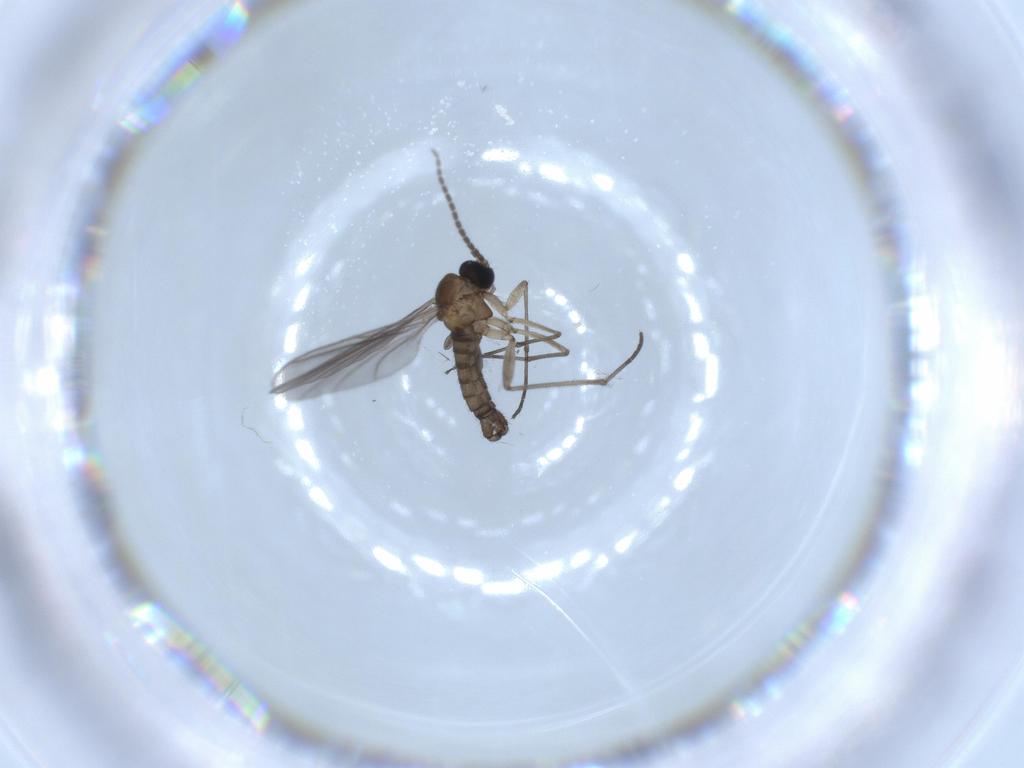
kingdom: Animalia
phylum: Arthropoda
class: Insecta
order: Diptera
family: Sciaridae
